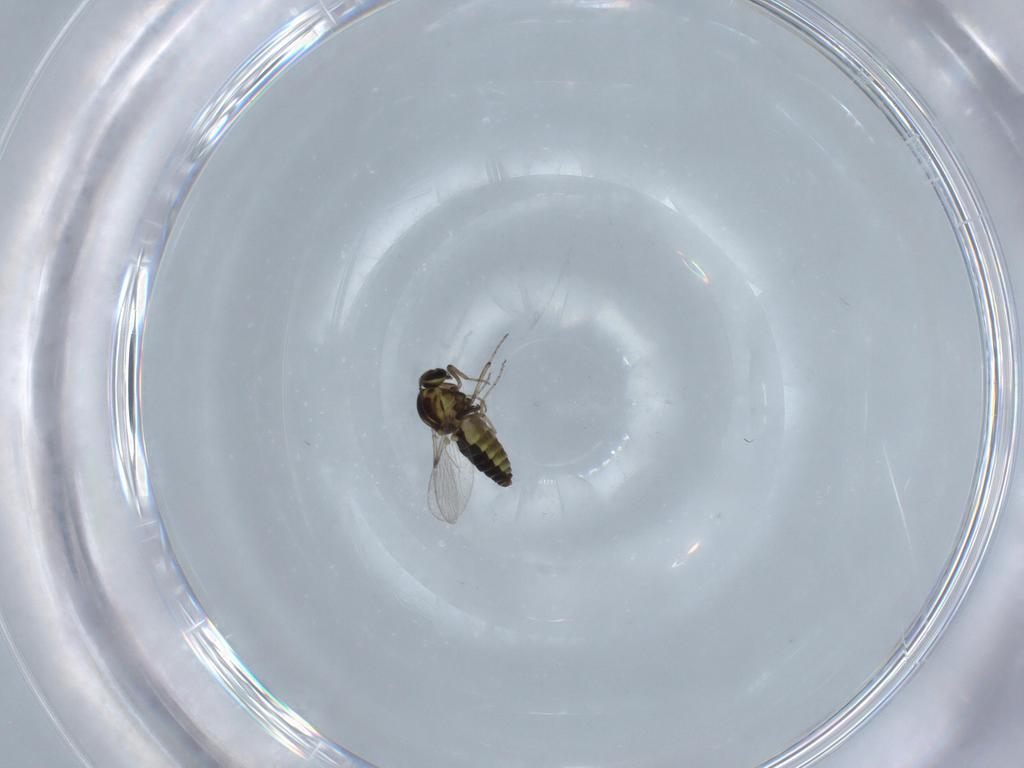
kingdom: Animalia
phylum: Arthropoda
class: Insecta
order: Diptera
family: Ceratopogonidae
